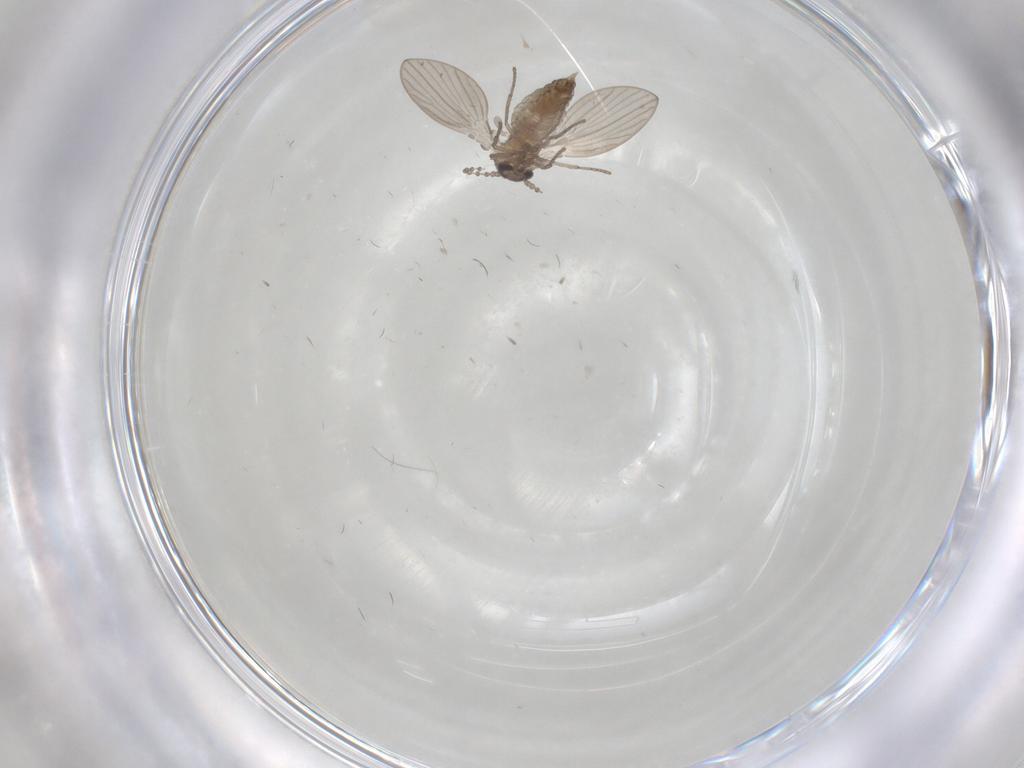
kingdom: Animalia
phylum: Arthropoda
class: Insecta
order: Diptera
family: Psychodidae
